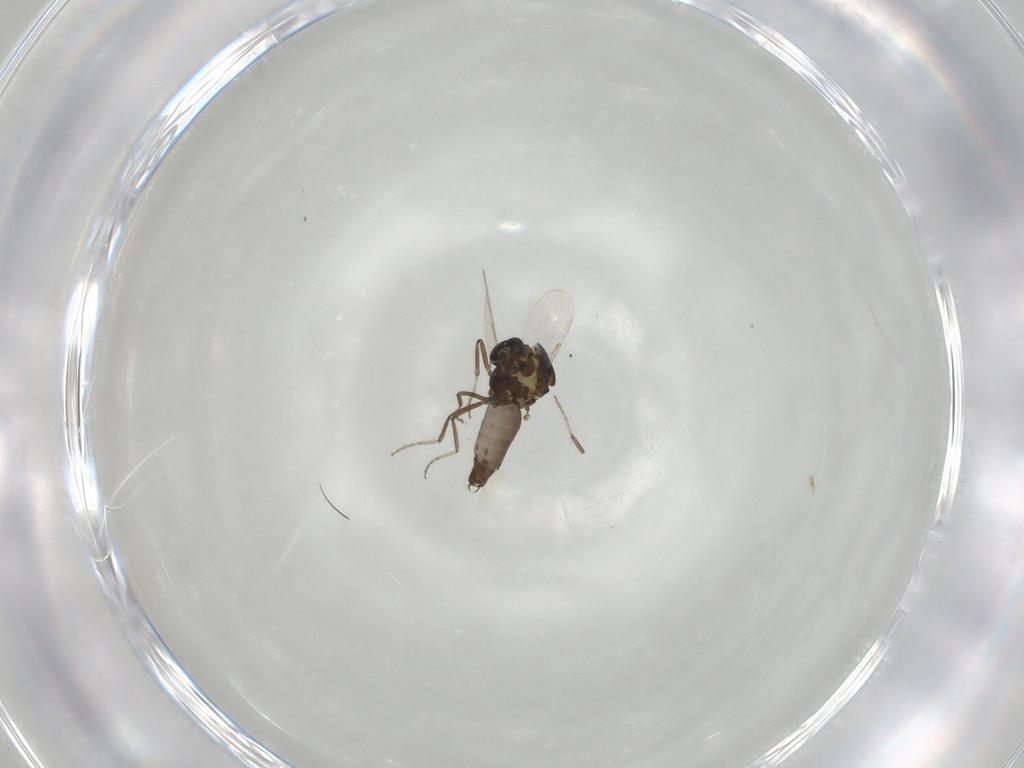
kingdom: Animalia
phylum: Arthropoda
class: Insecta
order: Diptera
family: Ceratopogonidae
